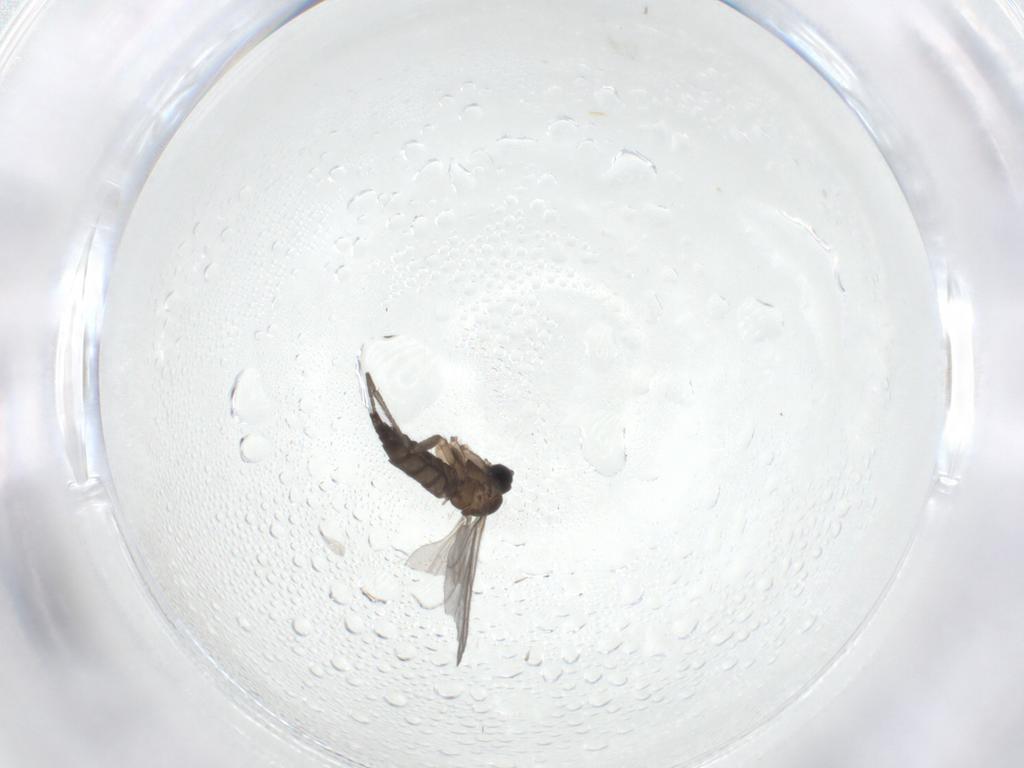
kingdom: Animalia
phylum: Arthropoda
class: Insecta
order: Diptera
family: Sciaridae
